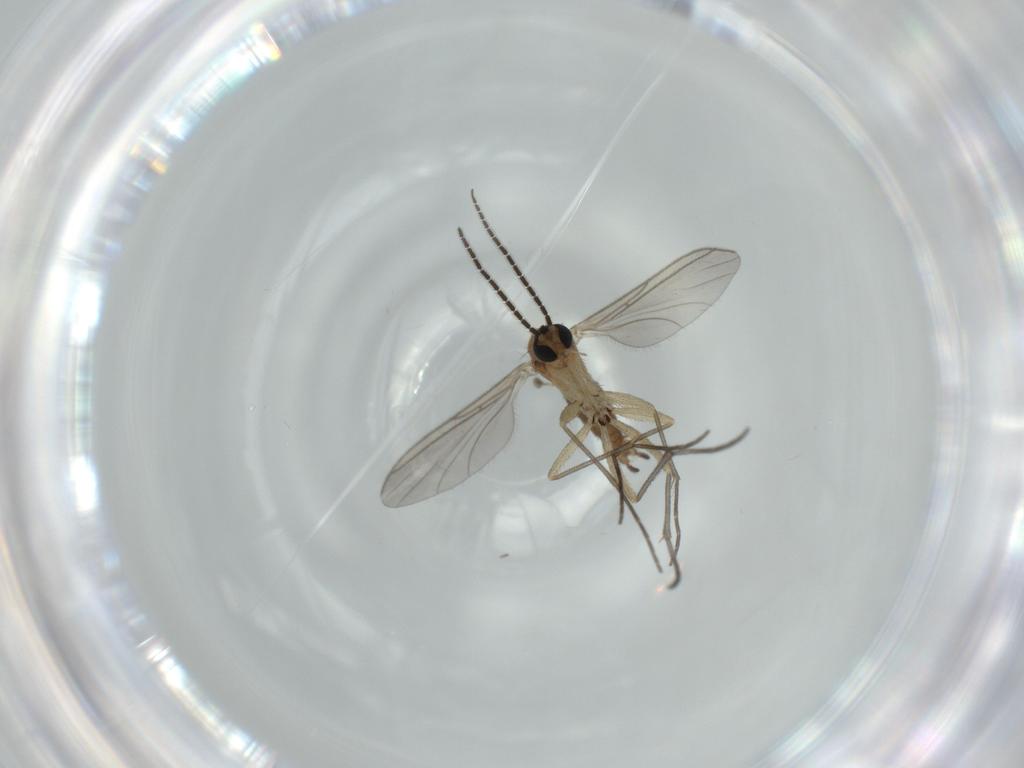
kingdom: Animalia
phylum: Arthropoda
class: Insecta
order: Diptera
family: Sciaridae
